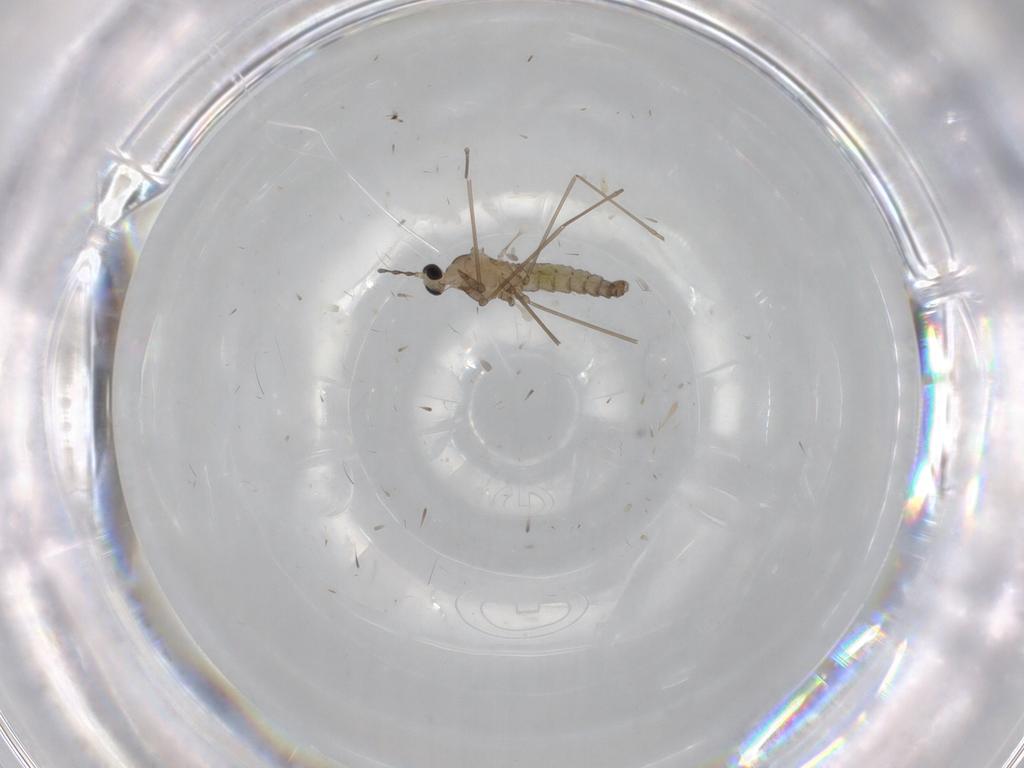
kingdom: Animalia
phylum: Arthropoda
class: Insecta
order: Diptera
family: Cecidomyiidae
